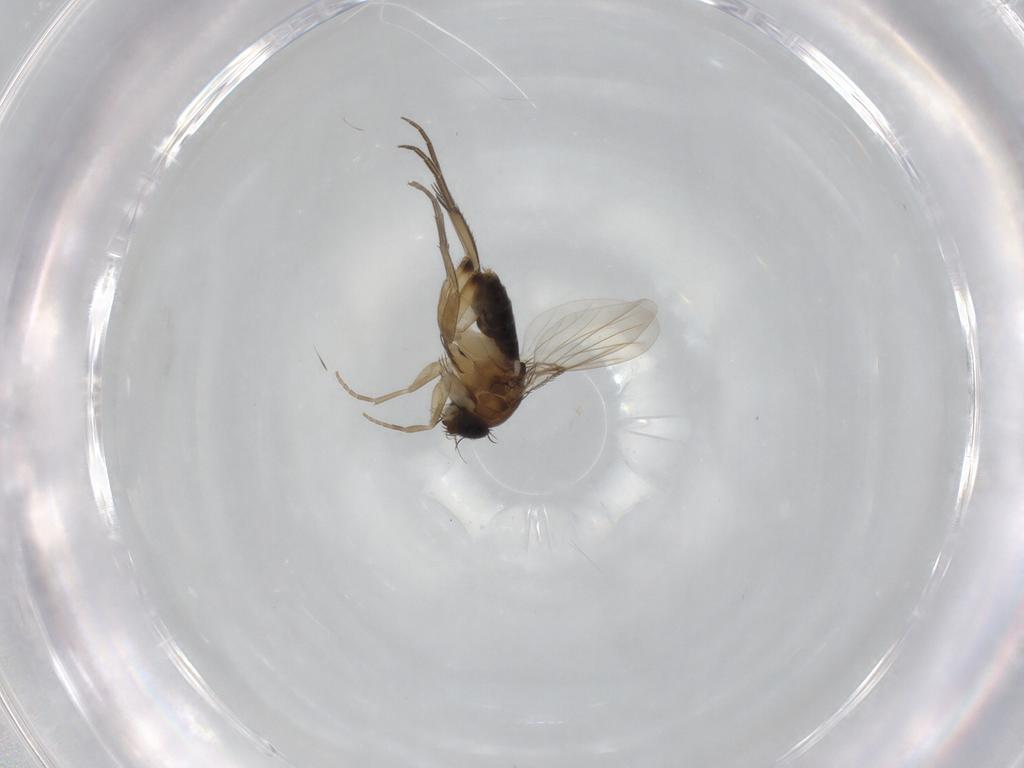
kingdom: Animalia
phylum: Arthropoda
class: Insecta
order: Diptera
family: Phoridae
